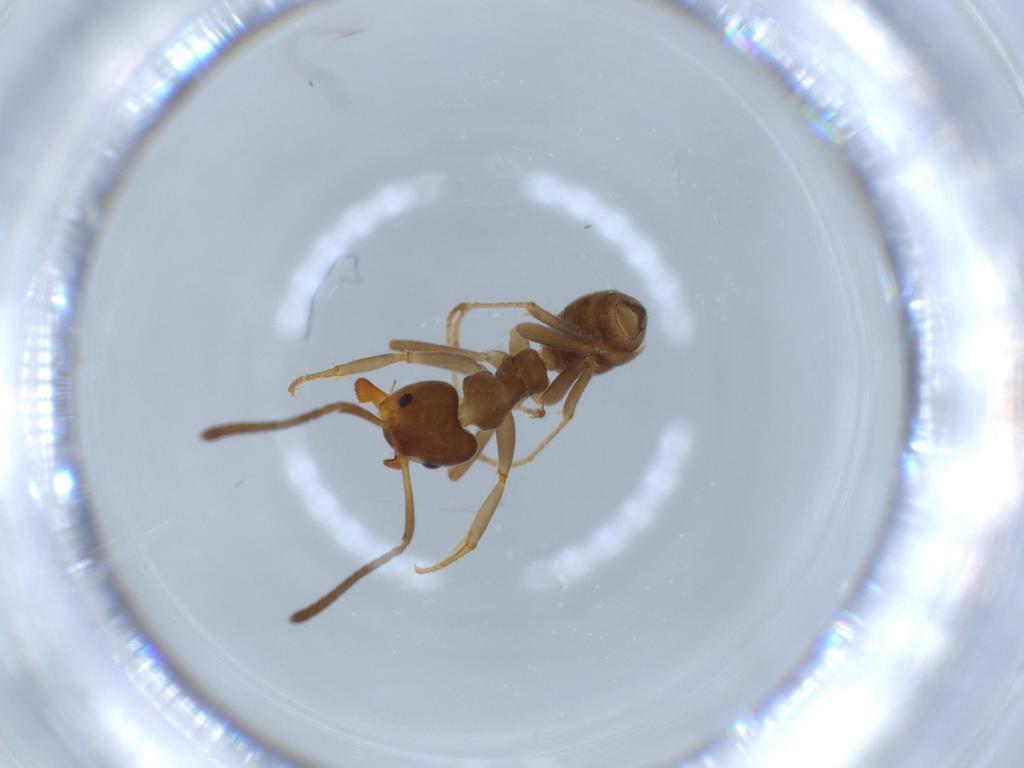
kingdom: Animalia
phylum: Arthropoda
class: Insecta
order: Hymenoptera
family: Formicidae
